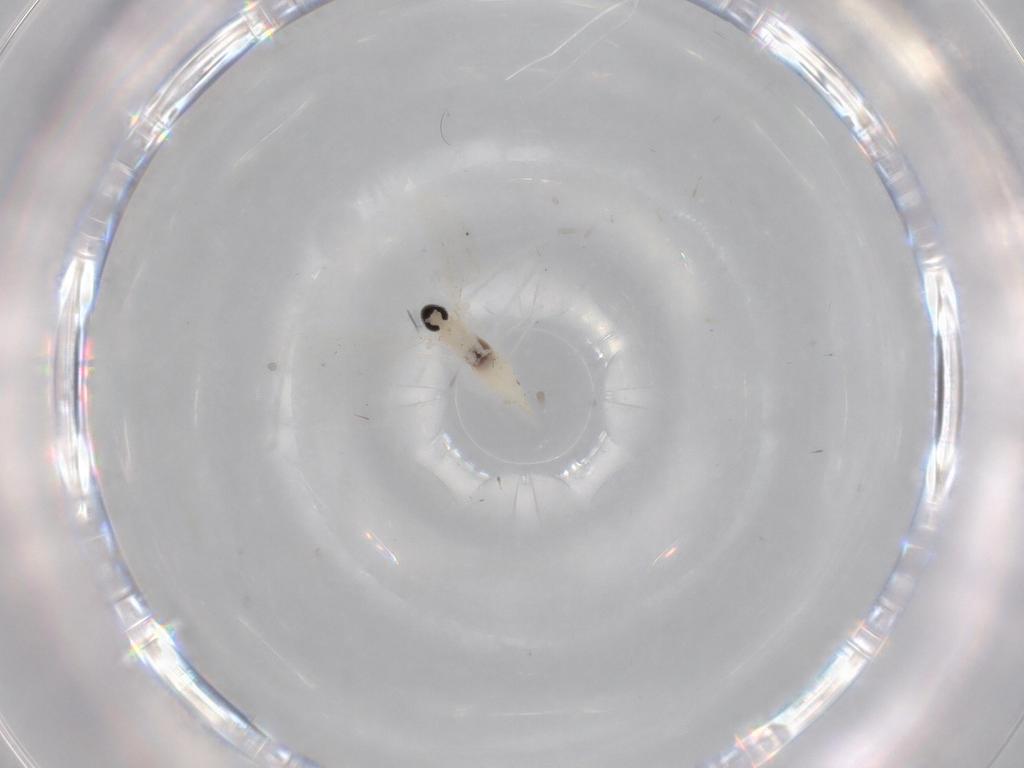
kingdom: Animalia
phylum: Arthropoda
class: Insecta
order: Diptera
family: Cecidomyiidae
